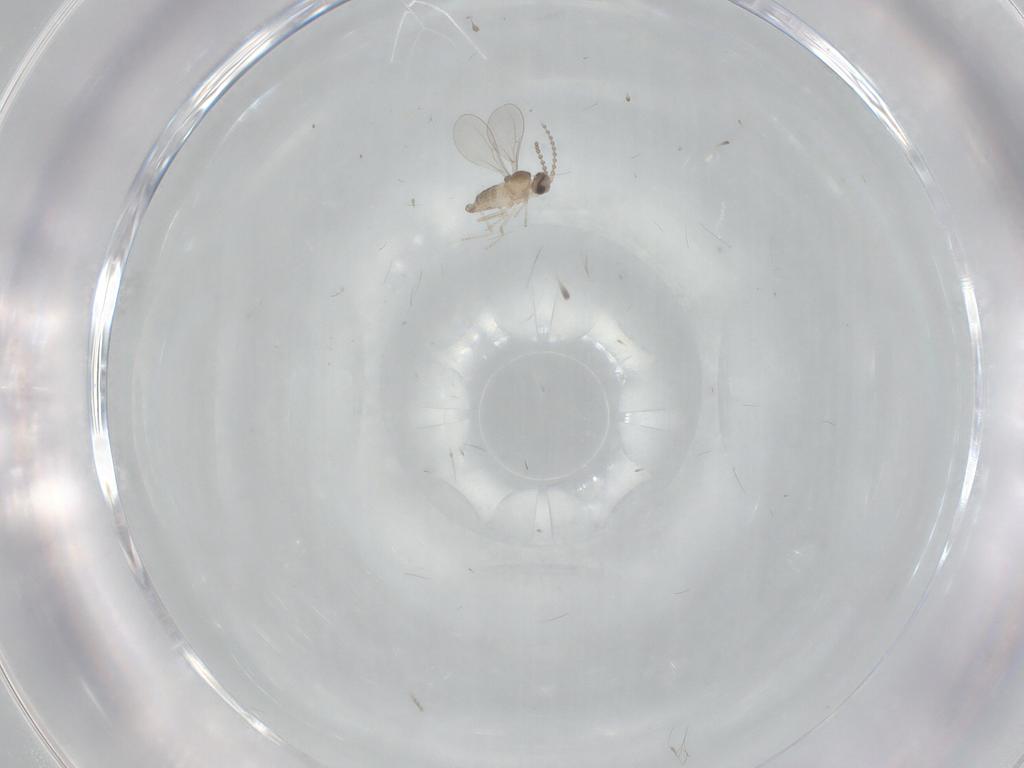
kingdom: Animalia
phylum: Arthropoda
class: Insecta
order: Diptera
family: Cecidomyiidae
